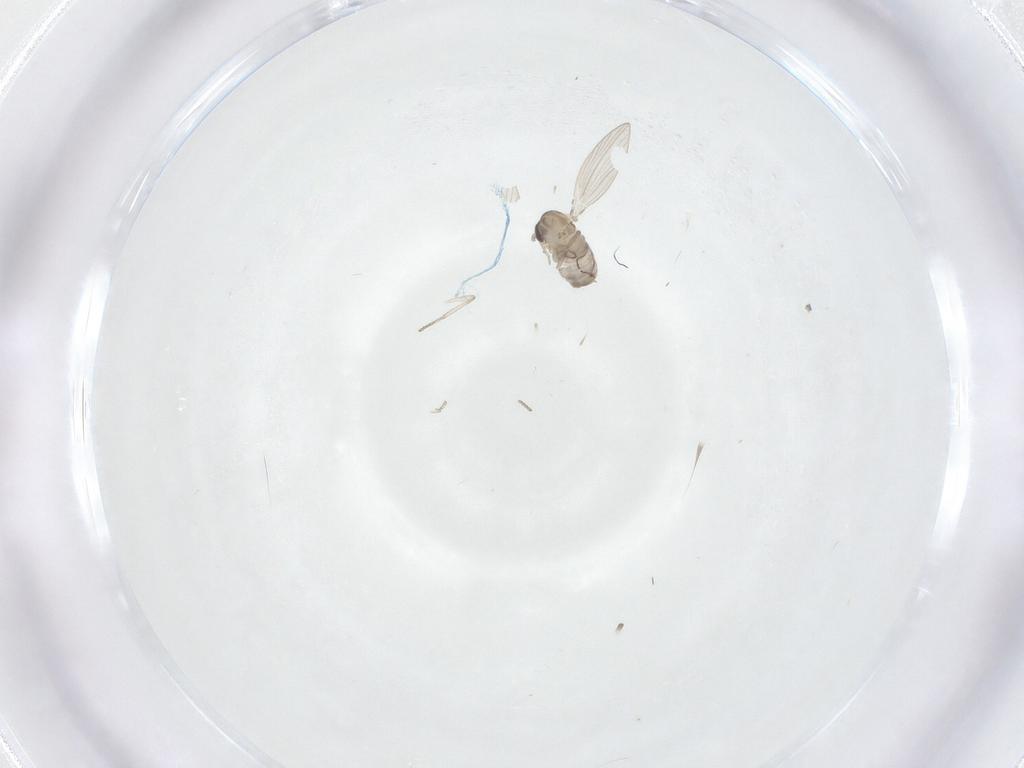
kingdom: Animalia
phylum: Arthropoda
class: Insecta
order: Diptera
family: Psychodidae
